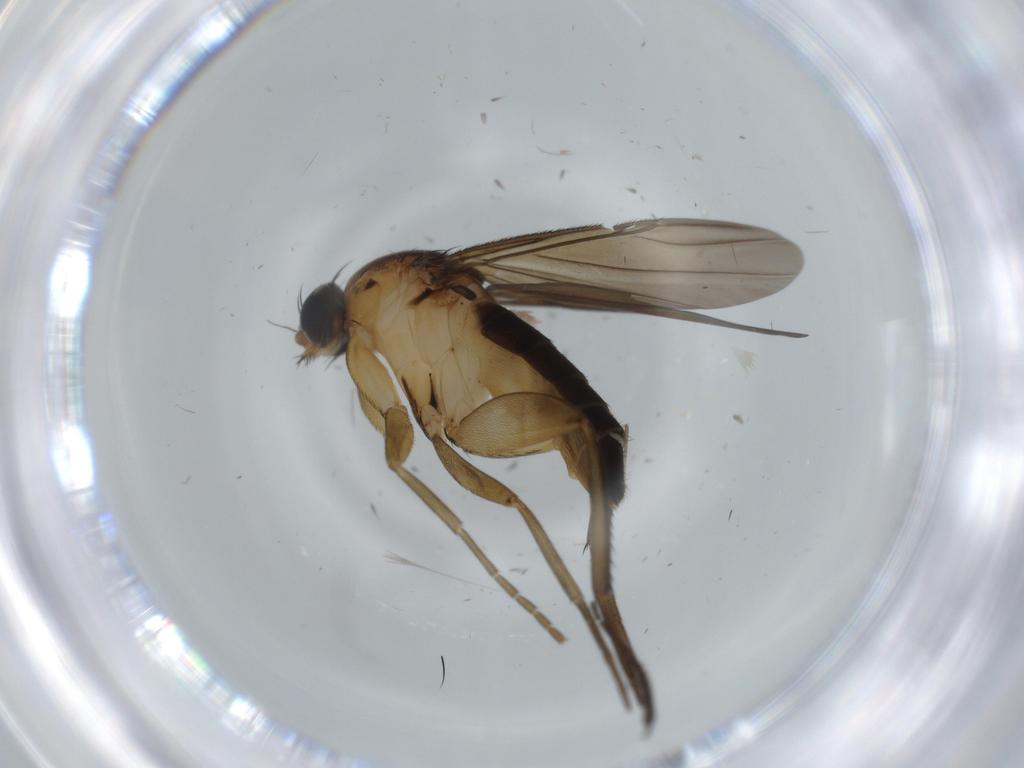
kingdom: Animalia
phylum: Arthropoda
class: Insecta
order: Diptera
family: Phoridae
